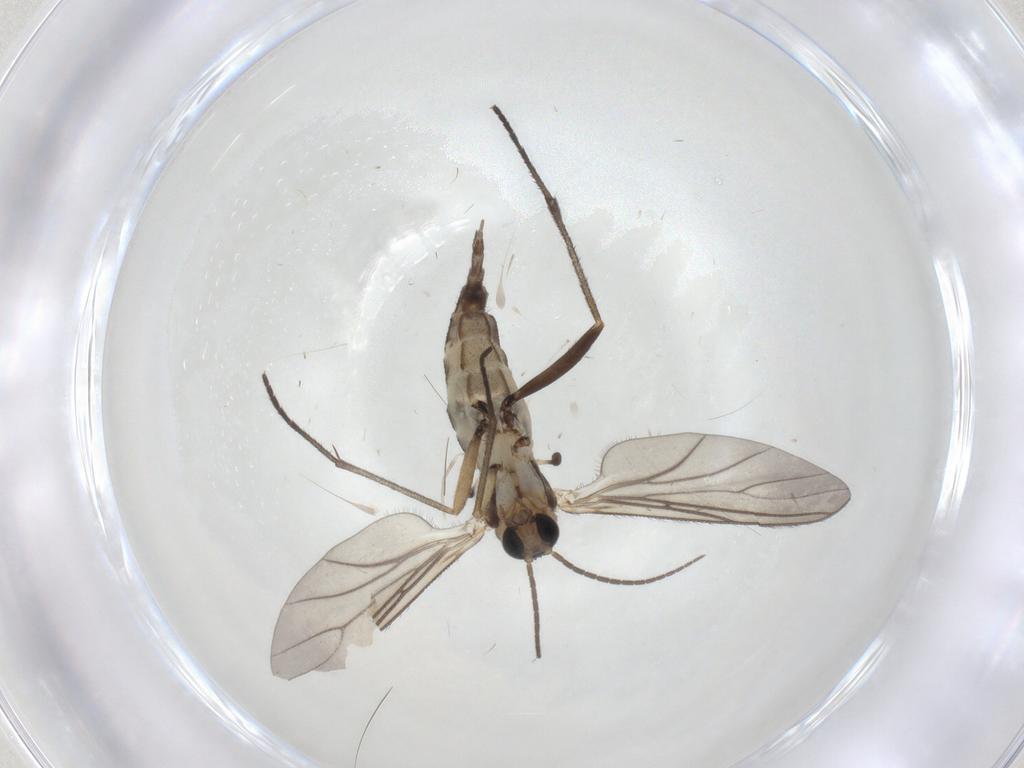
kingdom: Animalia
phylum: Arthropoda
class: Insecta
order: Diptera
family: Sciaridae
